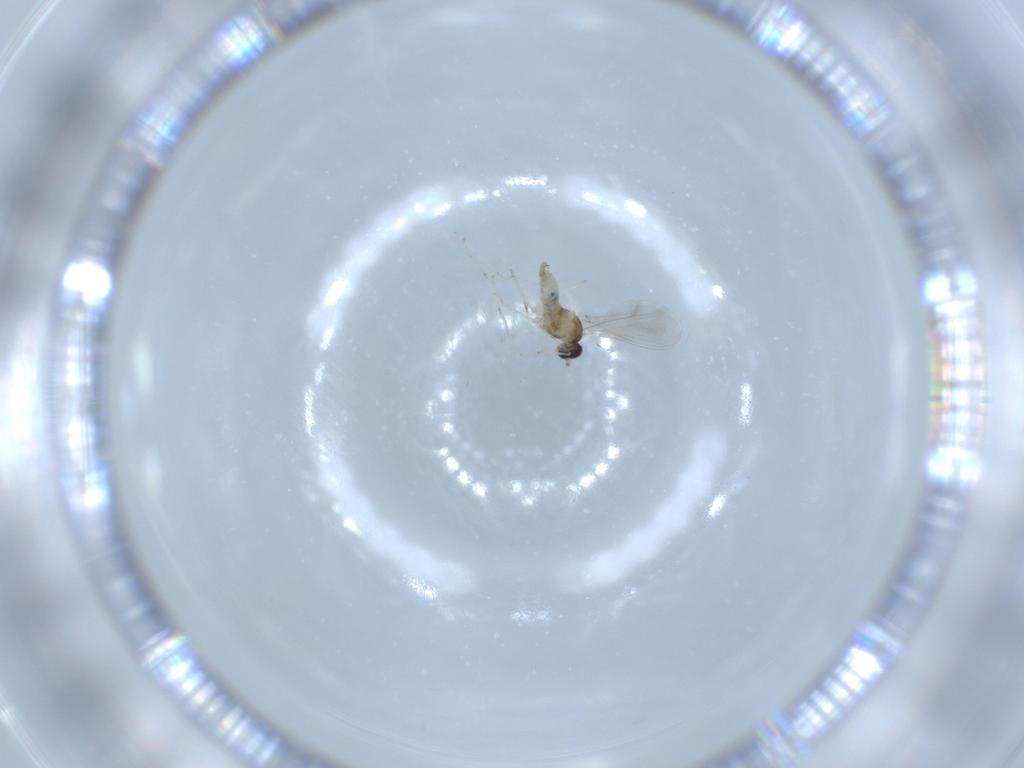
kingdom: Animalia
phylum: Arthropoda
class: Insecta
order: Diptera
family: Cecidomyiidae
